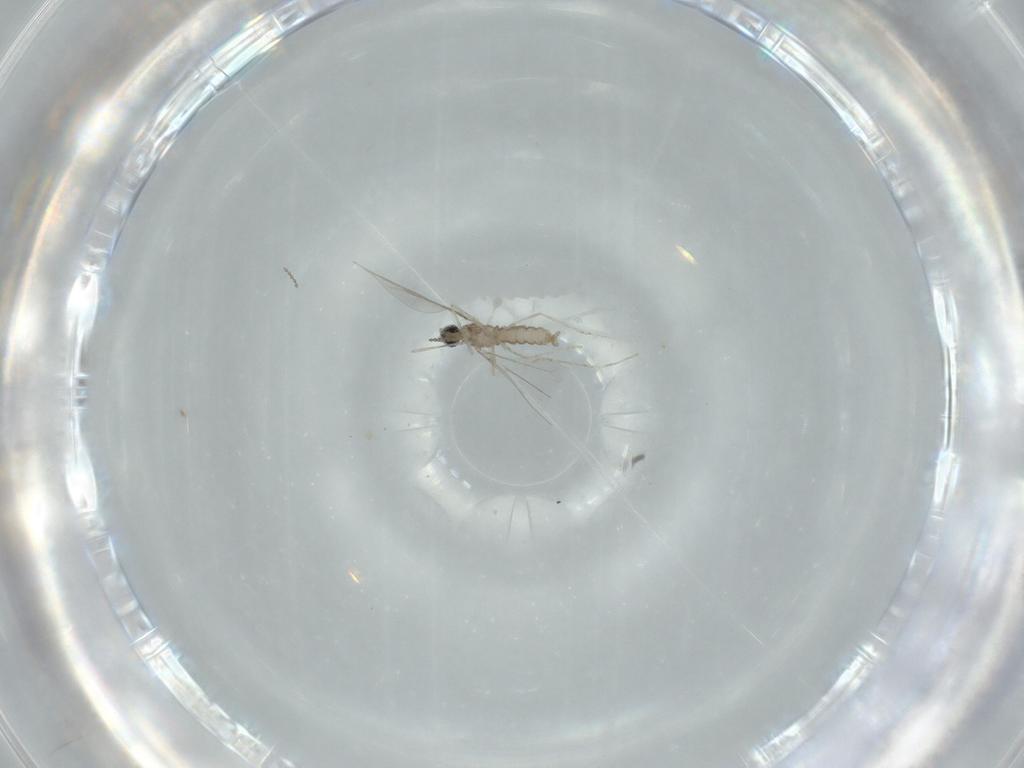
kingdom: Animalia
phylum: Arthropoda
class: Insecta
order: Diptera
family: Cecidomyiidae
